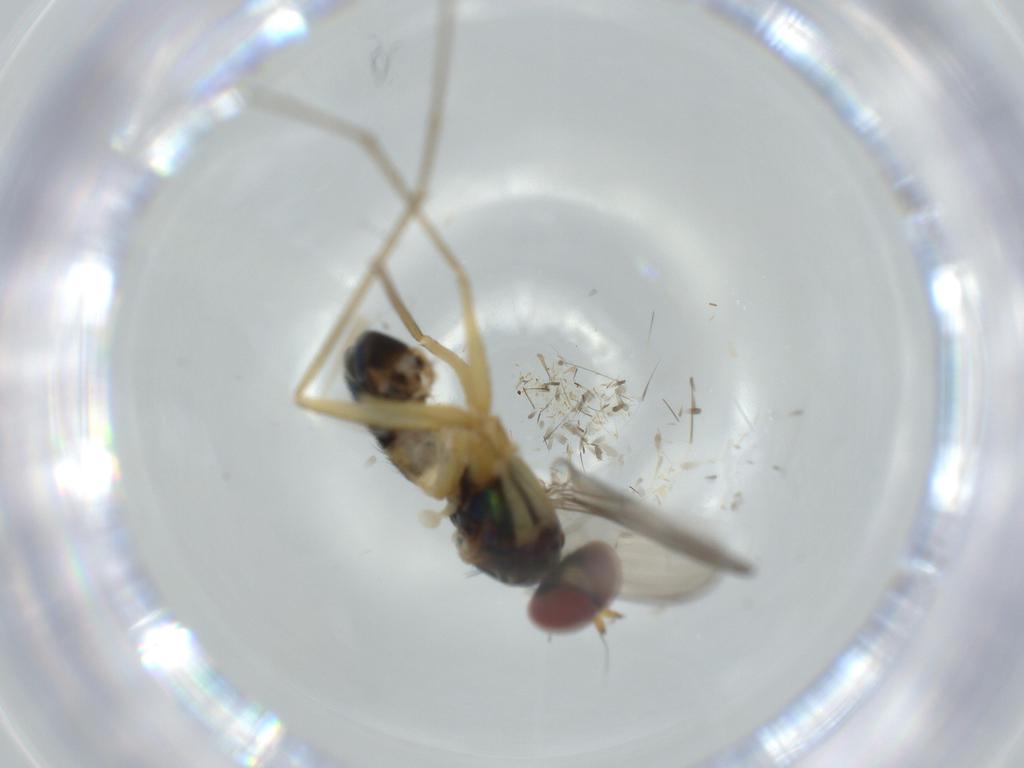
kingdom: Animalia
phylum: Arthropoda
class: Insecta
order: Diptera
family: Dolichopodidae
